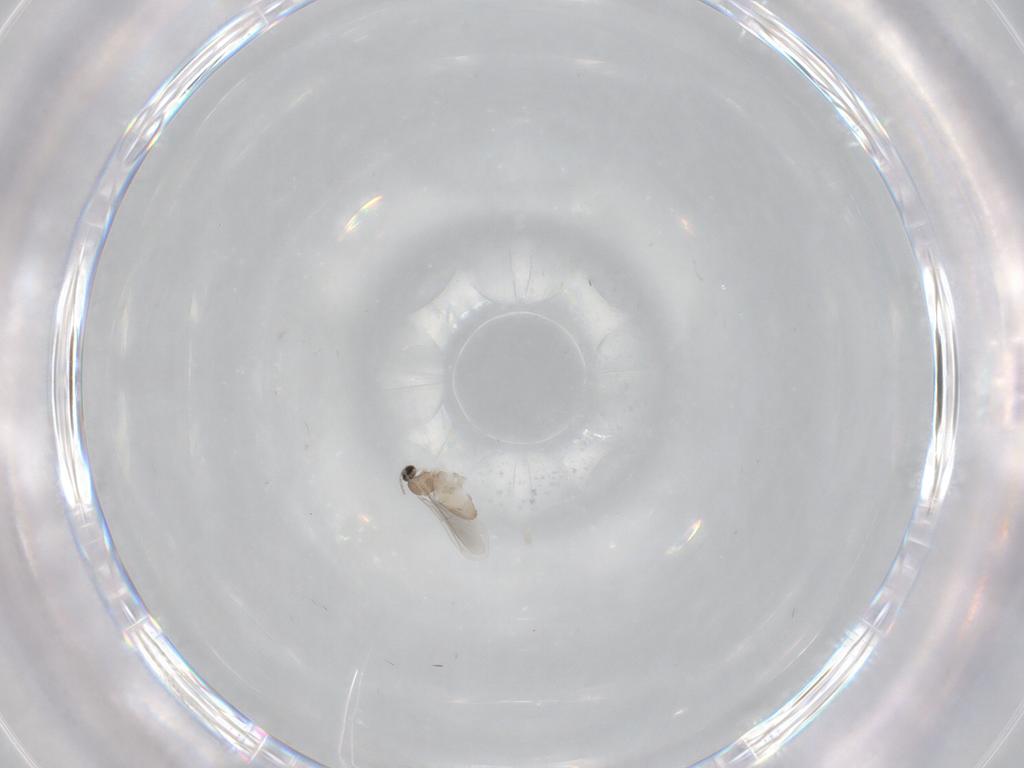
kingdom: Animalia
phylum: Arthropoda
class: Insecta
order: Diptera
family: Cecidomyiidae
